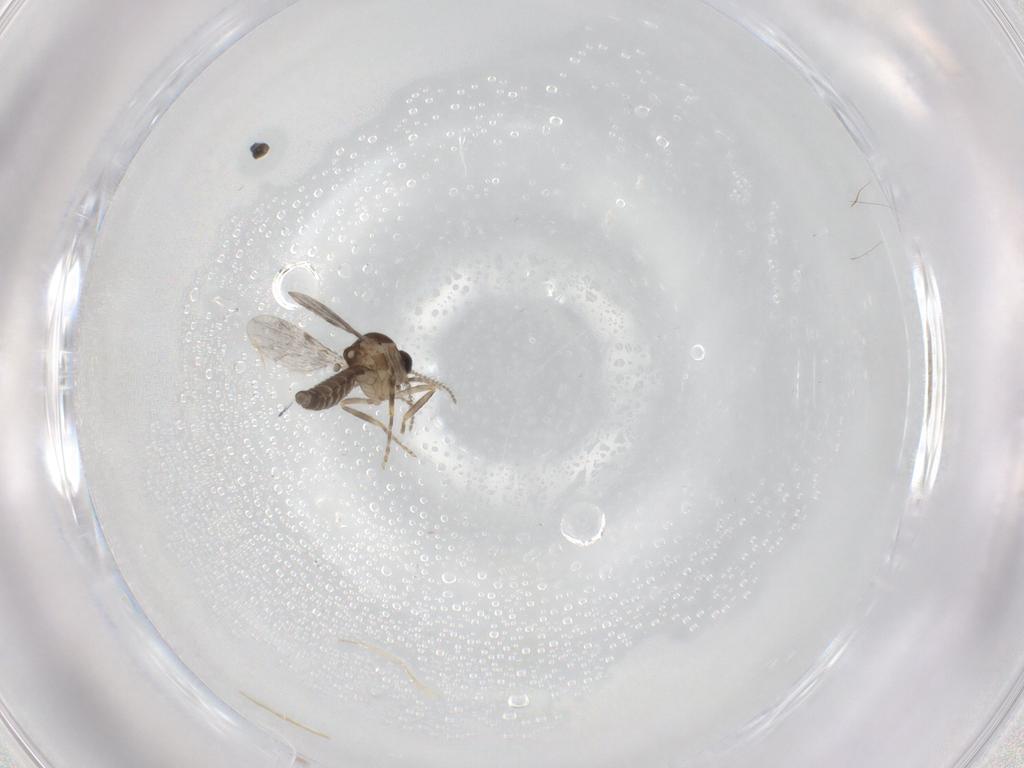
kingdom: Animalia
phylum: Arthropoda
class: Insecta
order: Diptera
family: Ceratopogonidae
